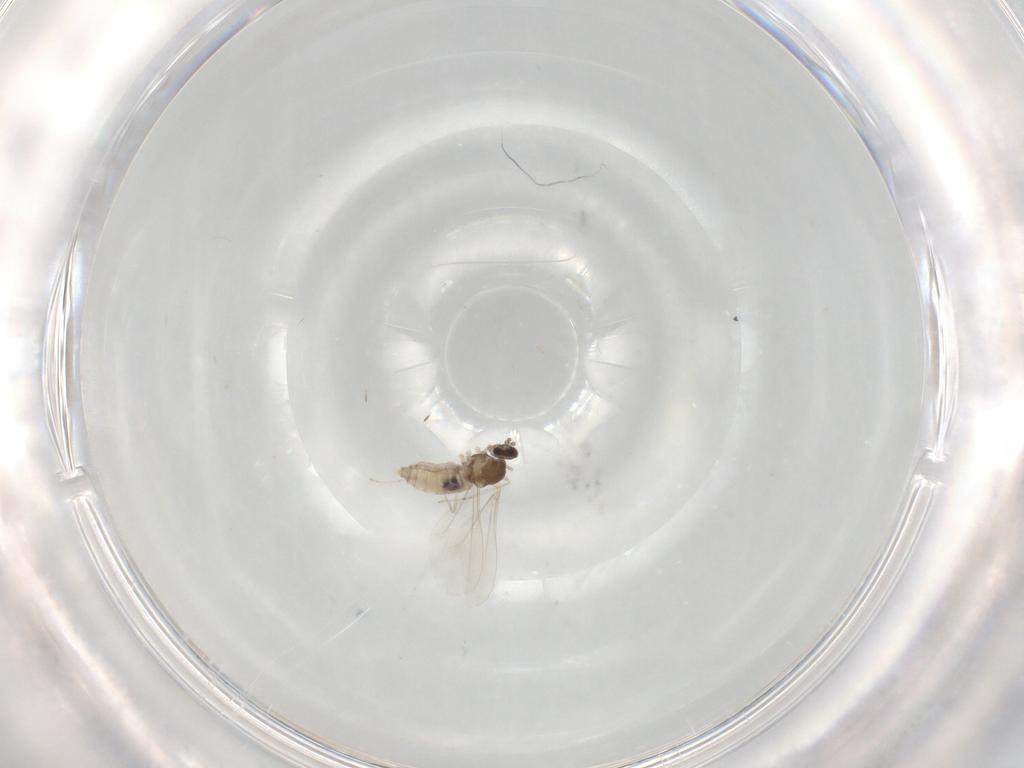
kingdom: Animalia
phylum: Arthropoda
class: Insecta
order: Diptera
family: Cecidomyiidae
